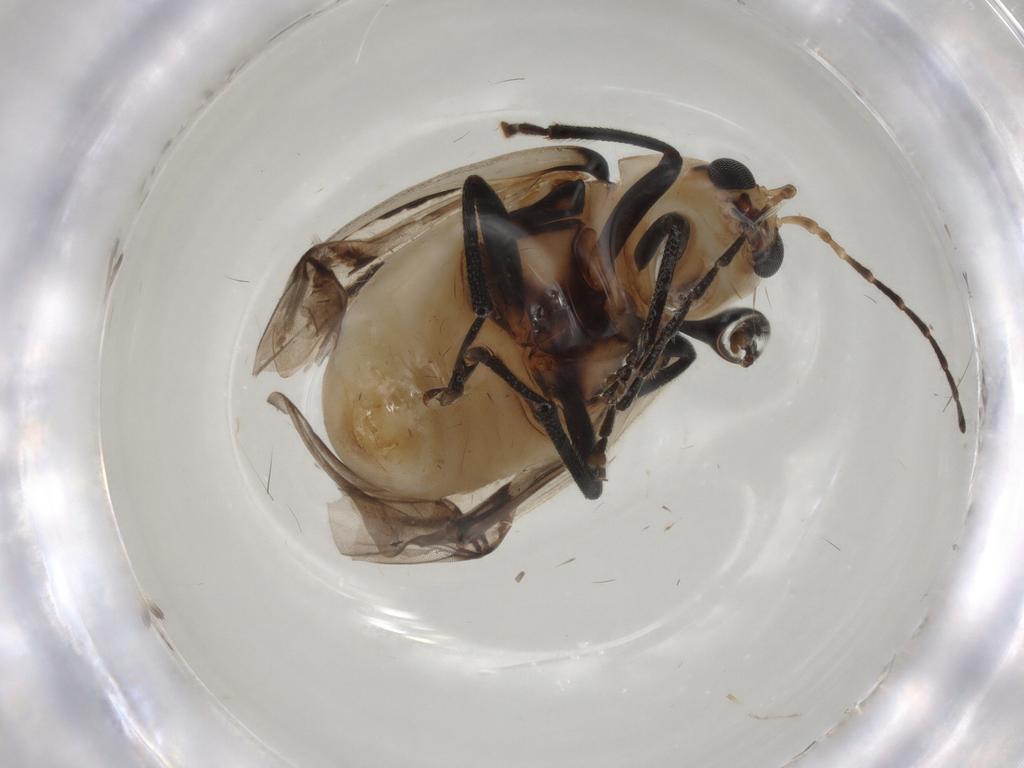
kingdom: Animalia
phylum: Arthropoda
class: Insecta
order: Coleoptera
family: Chrysomelidae
